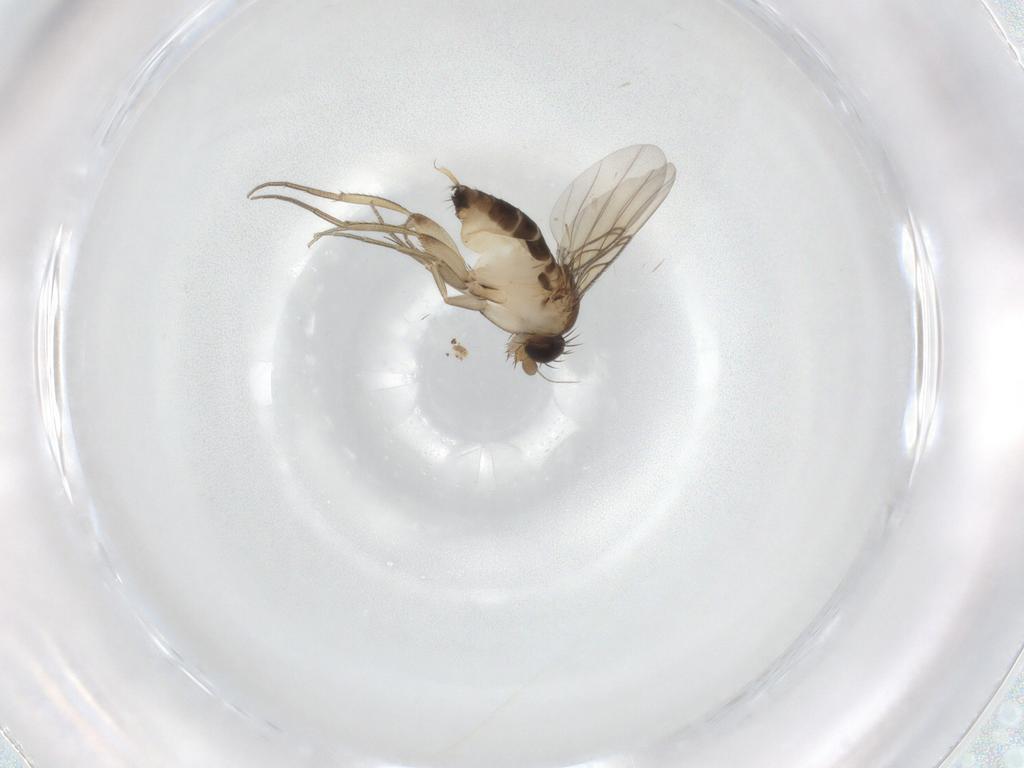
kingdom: Animalia
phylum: Arthropoda
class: Insecta
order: Diptera
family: Phoridae
